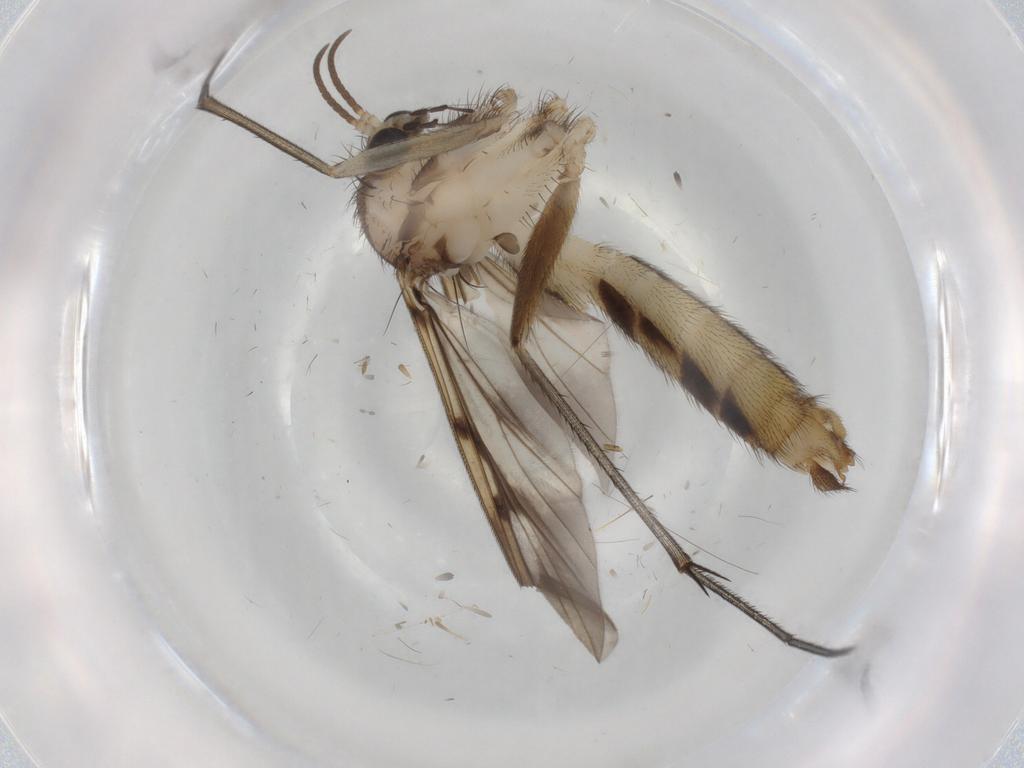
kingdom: Animalia
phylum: Arthropoda
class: Insecta
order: Diptera
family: Mycetophilidae
